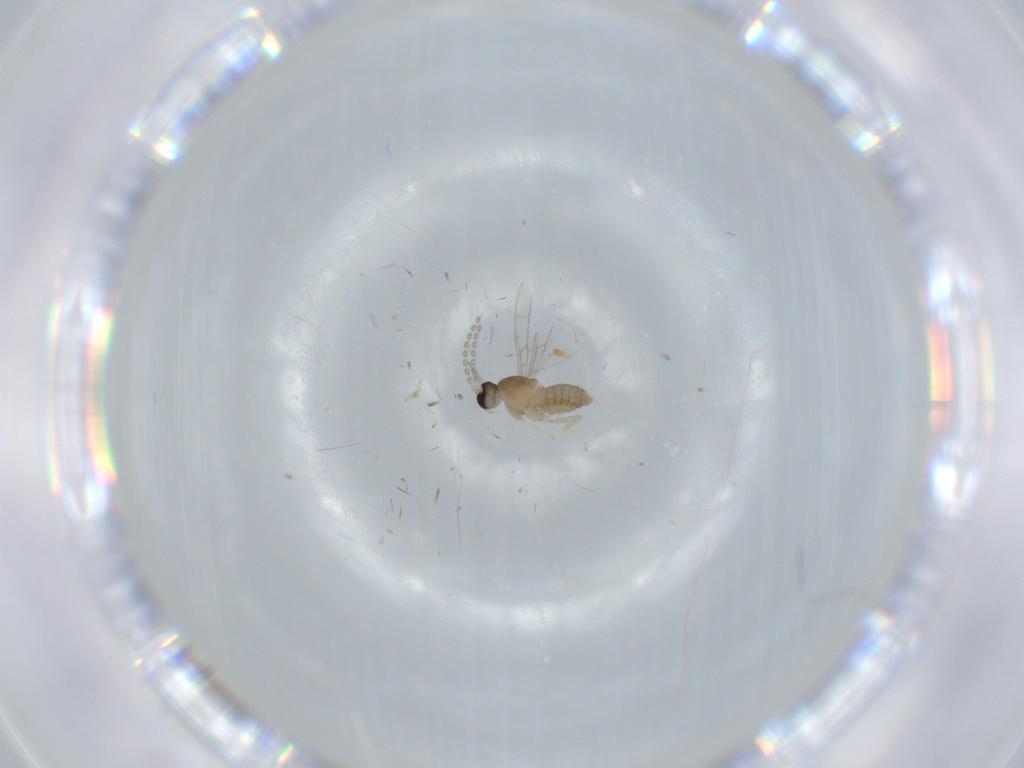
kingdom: Animalia
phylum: Arthropoda
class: Insecta
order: Diptera
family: Cecidomyiidae
